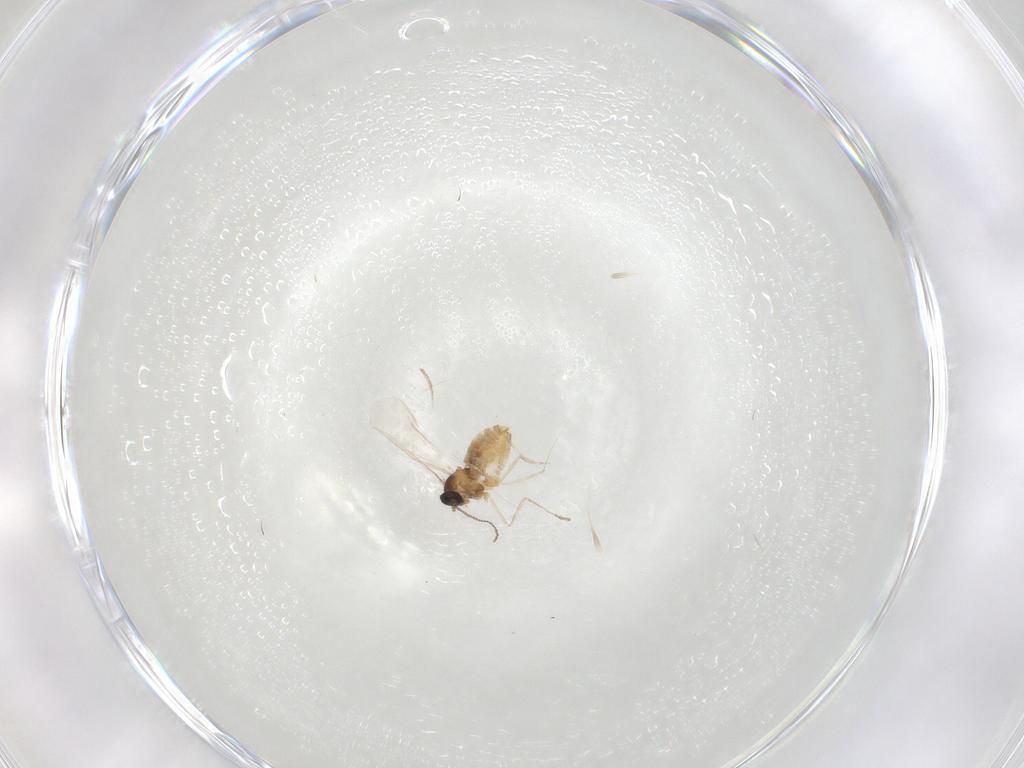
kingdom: Animalia
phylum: Arthropoda
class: Insecta
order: Diptera
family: Cecidomyiidae
